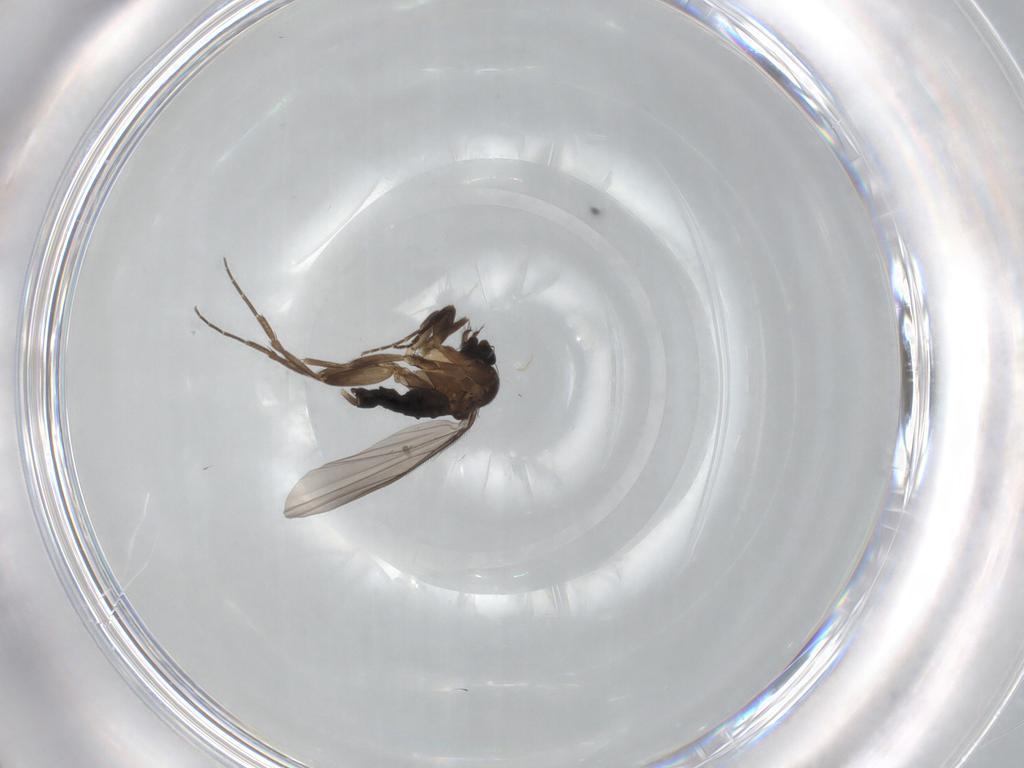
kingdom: Animalia
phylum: Arthropoda
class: Insecta
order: Diptera
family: Phoridae
